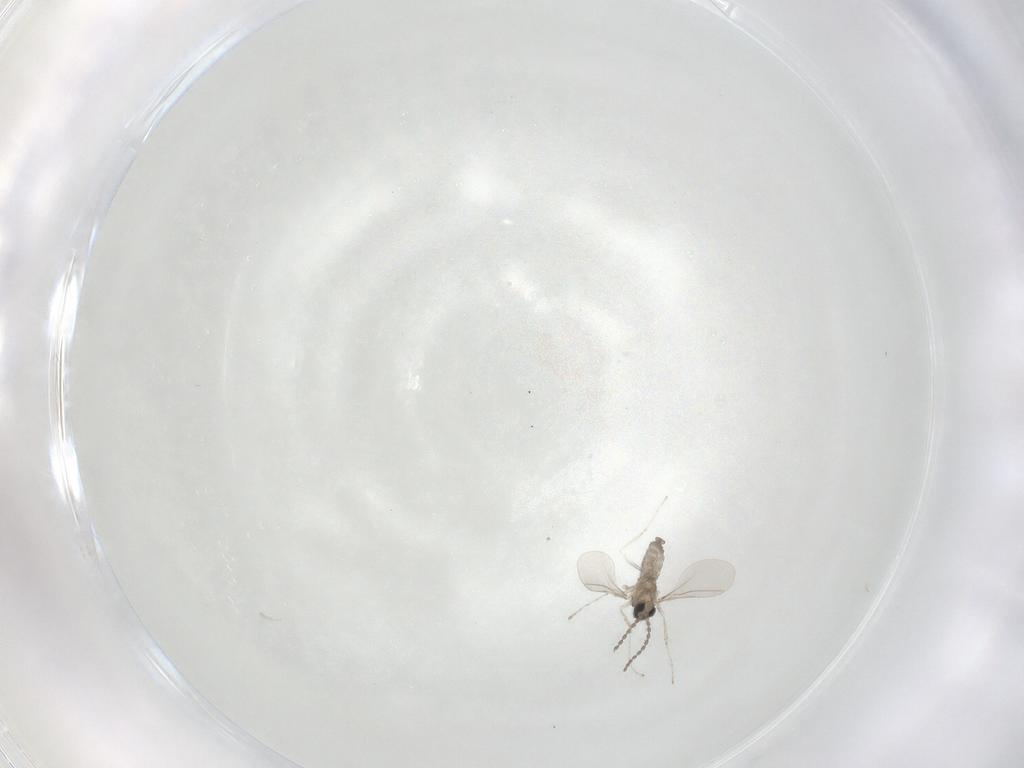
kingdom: Animalia
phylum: Arthropoda
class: Insecta
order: Diptera
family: Cecidomyiidae
